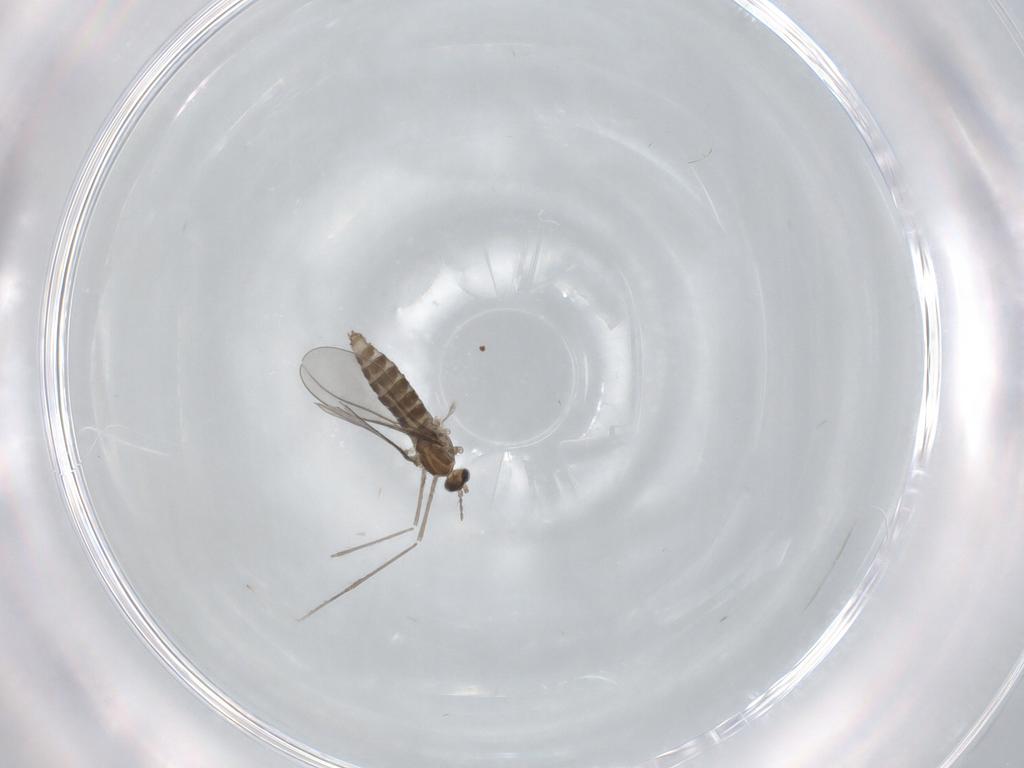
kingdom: Animalia
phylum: Arthropoda
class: Insecta
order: Diptera
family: Cecidomyiidae
